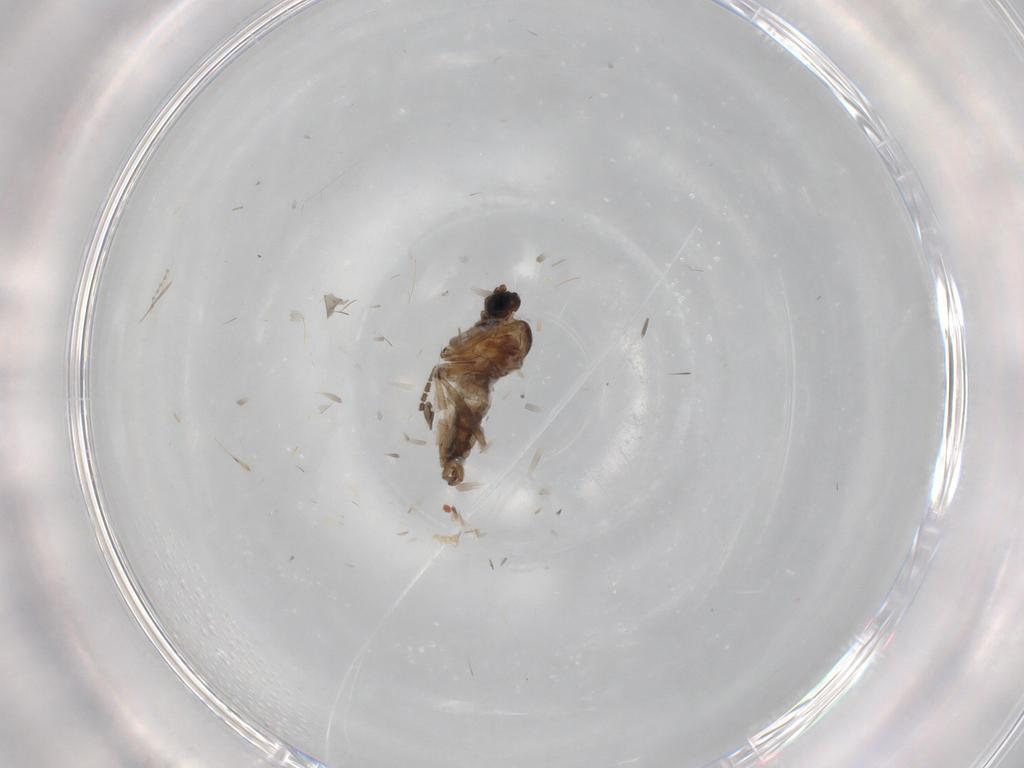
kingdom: Animalia
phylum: Arthropoda
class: Insecta
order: Diptera
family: Sciaridae
